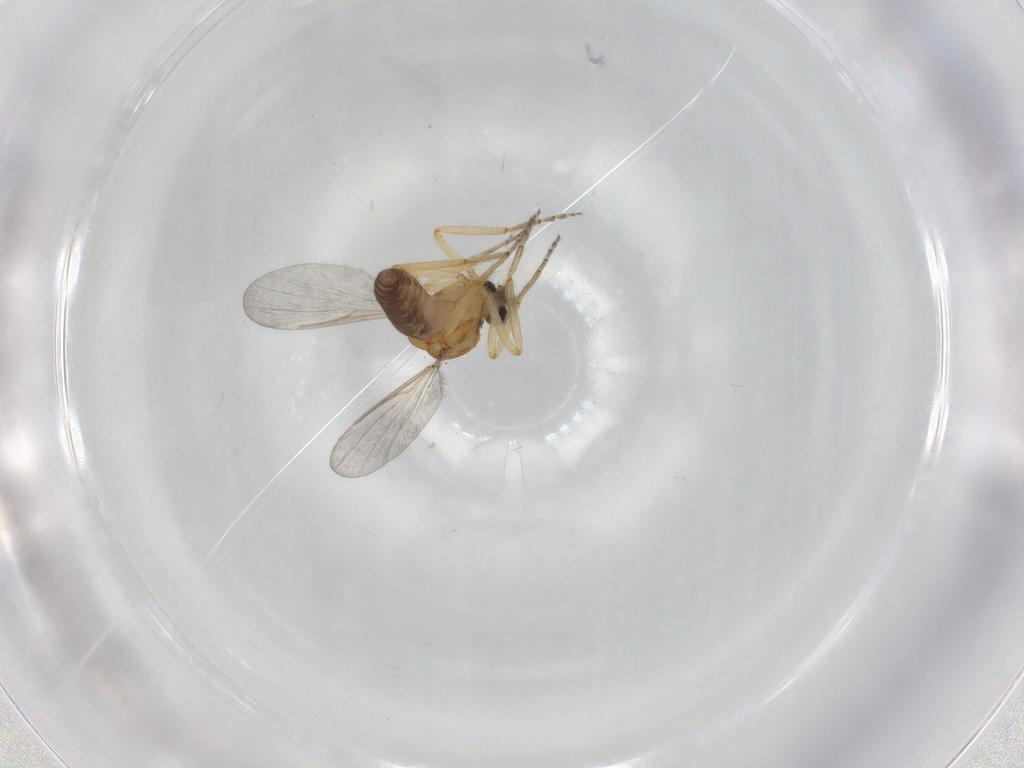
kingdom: Animalia
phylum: Arthropoda
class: Insecta
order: Diptera
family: Ceratopogonidae
